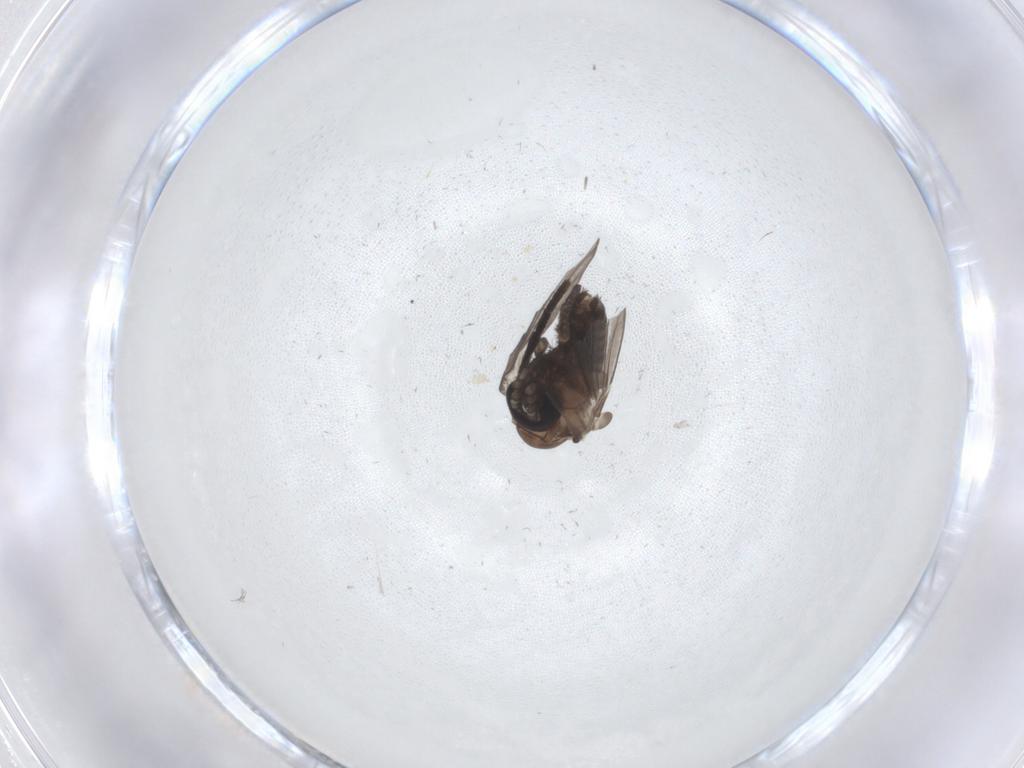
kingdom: Animalia
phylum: Arthropoda
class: Insecta
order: Diptera
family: Psychodidae
